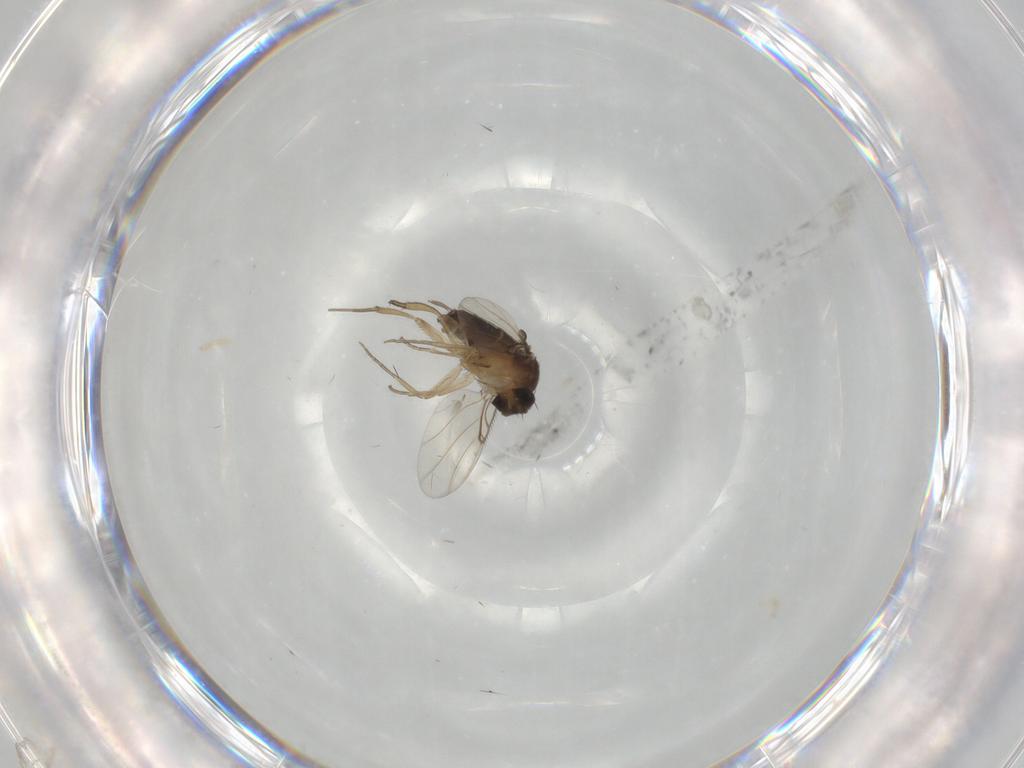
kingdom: Animalia
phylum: Arthropoda
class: Insecta
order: Diptera
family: Phoridae
